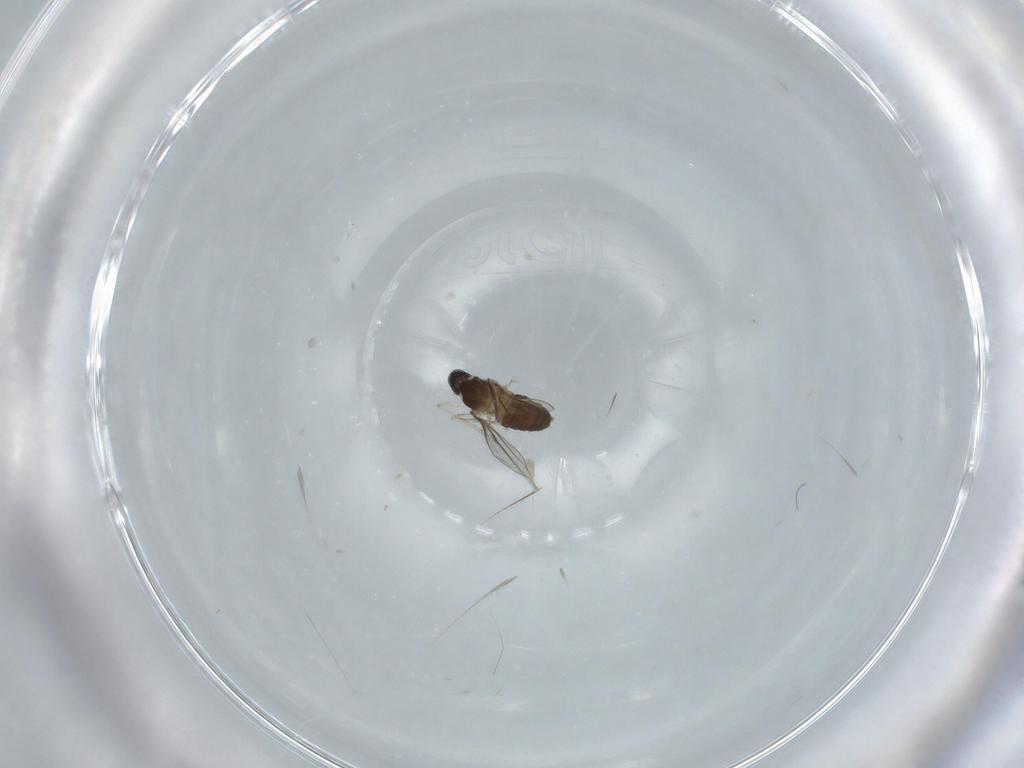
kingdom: Animalia
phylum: Arthropoda
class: Insecta
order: Diptera
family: Cecidomyiidae
